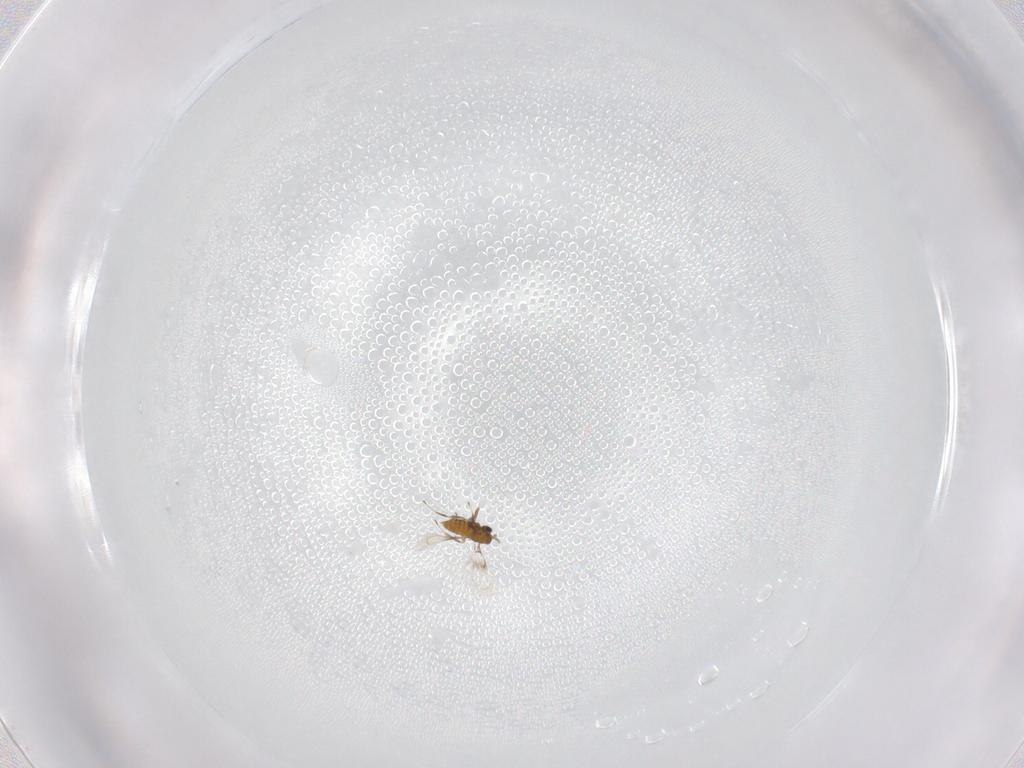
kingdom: Animalia
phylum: Arthropoda
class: Insecta
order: Hymenoptera
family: Trichogrammatidae
